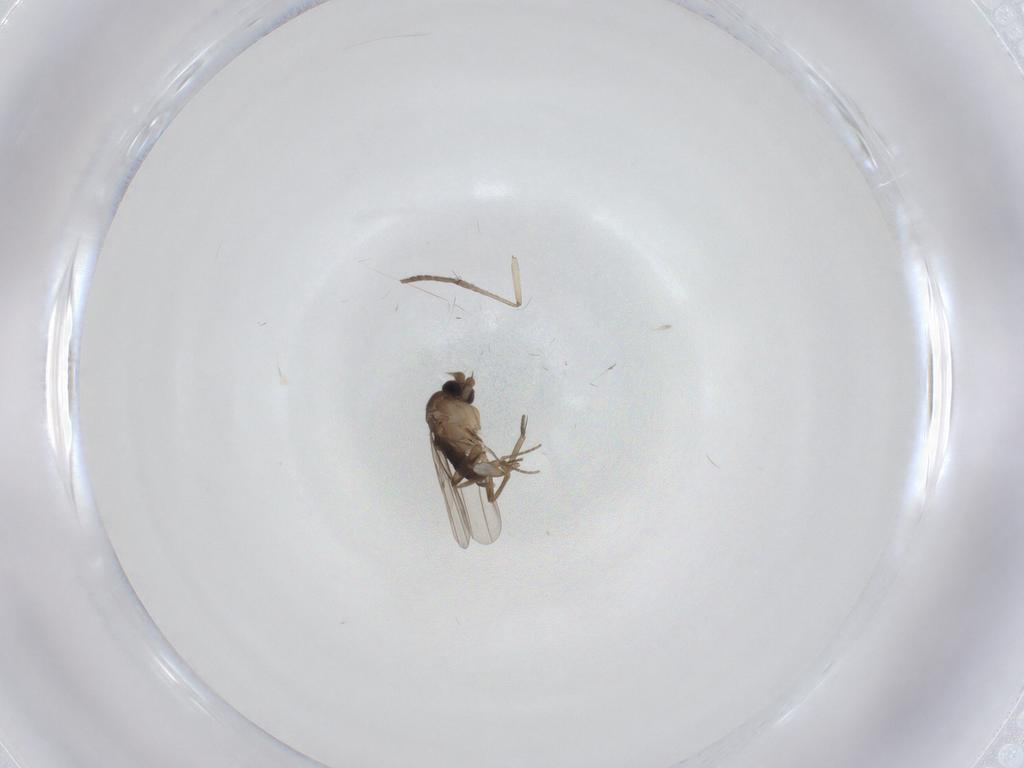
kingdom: Animalia
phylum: Arthropoda
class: Insecta
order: Diptera
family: Phoridae
